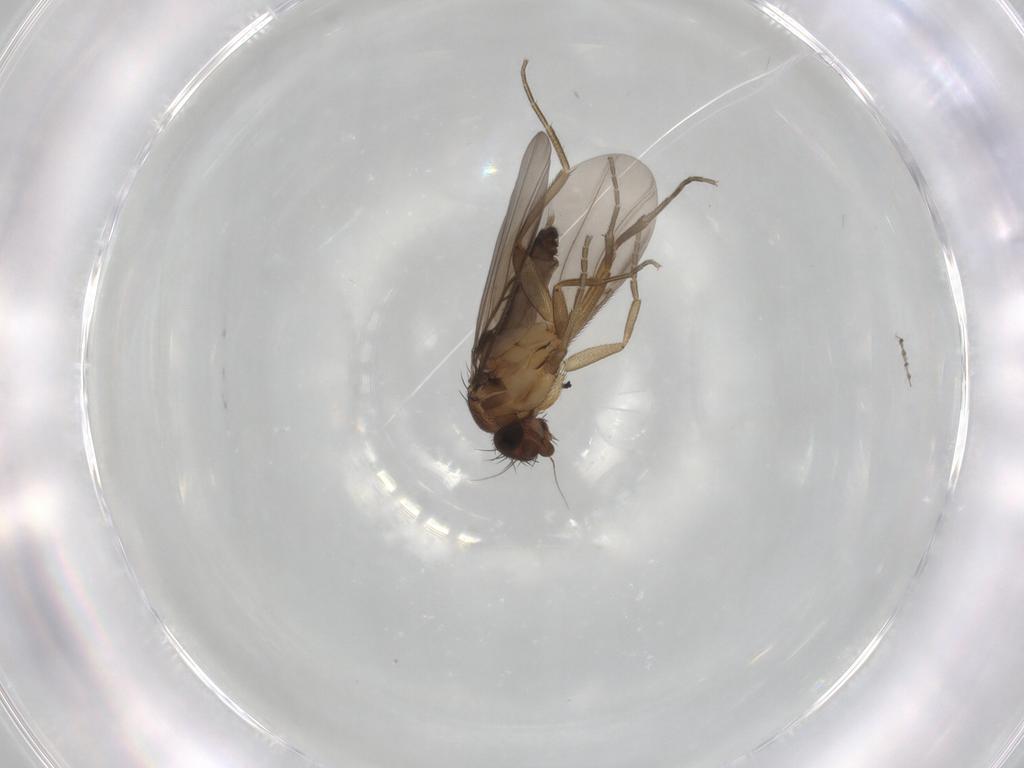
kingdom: Animalia
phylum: Arthropoda
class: Insecta
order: Diptera
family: Phoridae
